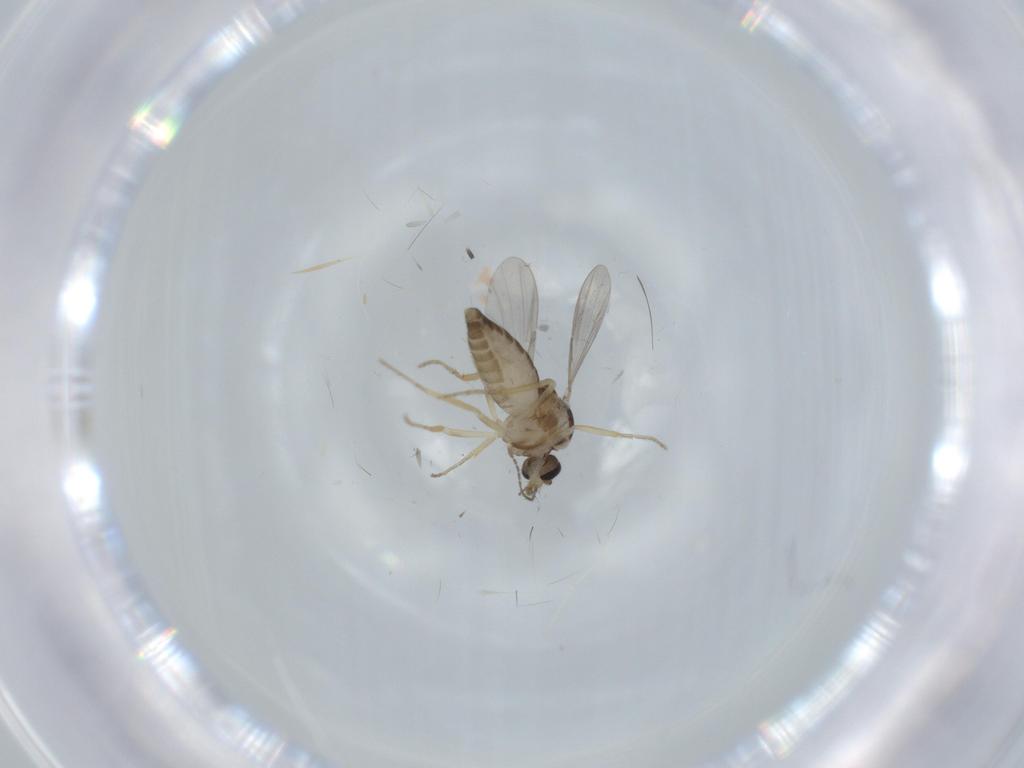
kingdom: Animalia
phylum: Arthropoda
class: Insecta
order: Diptera
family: Ceratopogonidae
